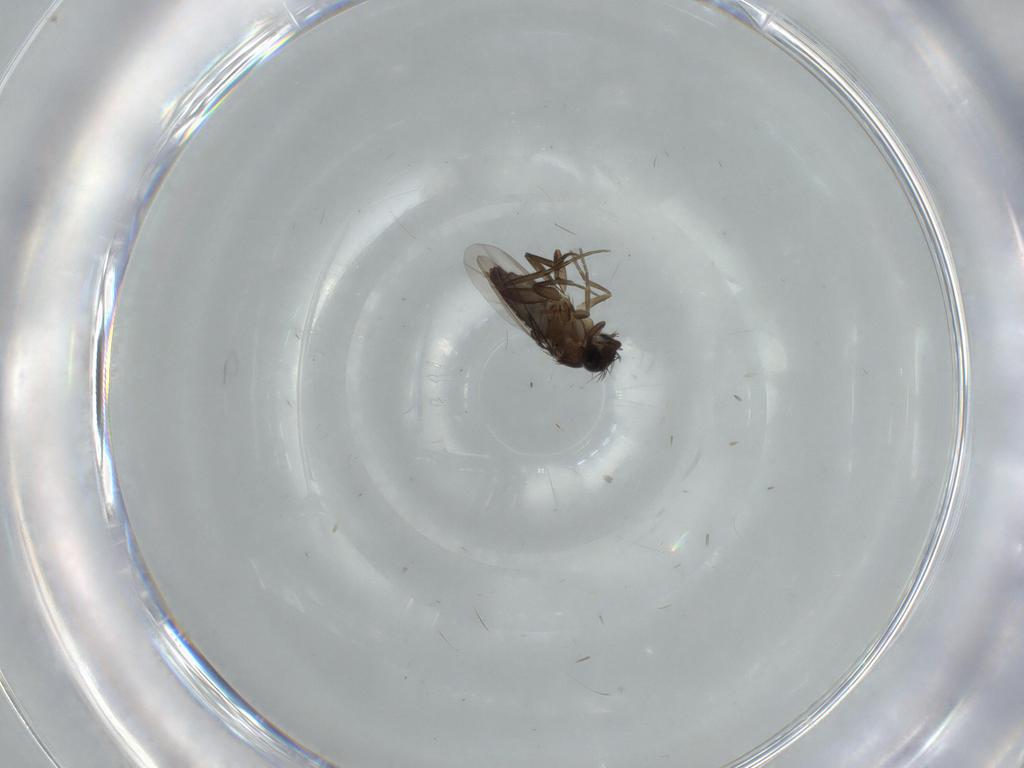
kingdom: Animalia
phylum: Arthropoda
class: Insecta
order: Diptera
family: Phoridae
